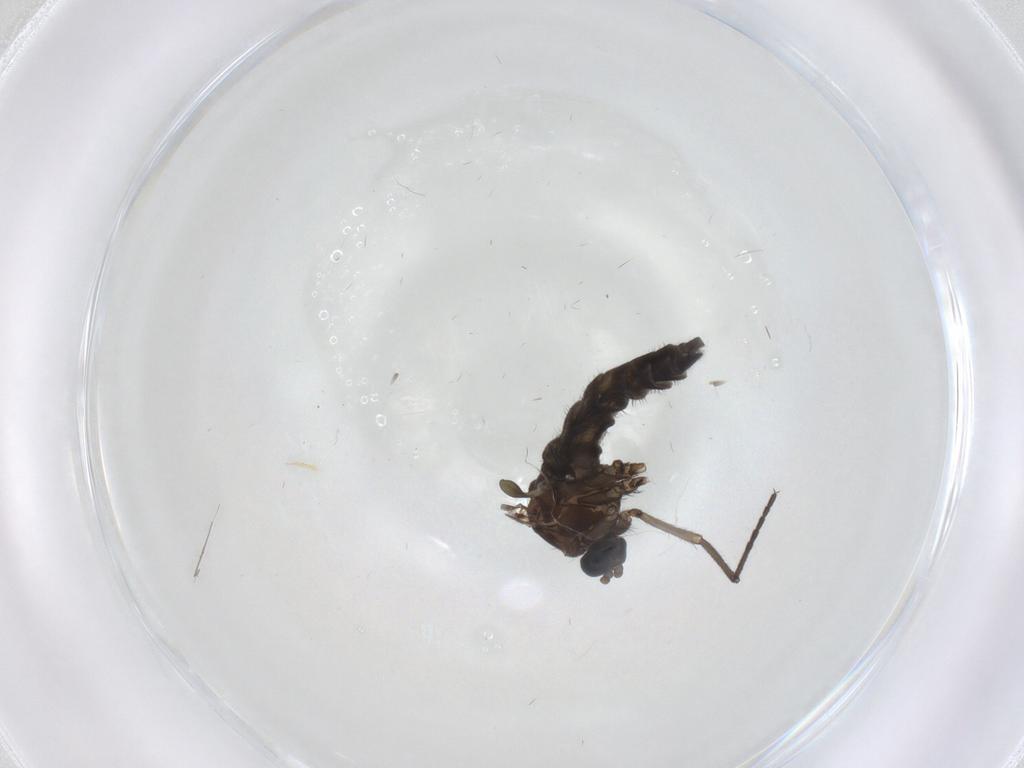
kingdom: Animalia
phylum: Arthropoda
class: Insecta
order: Diptera
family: Sciaridae
